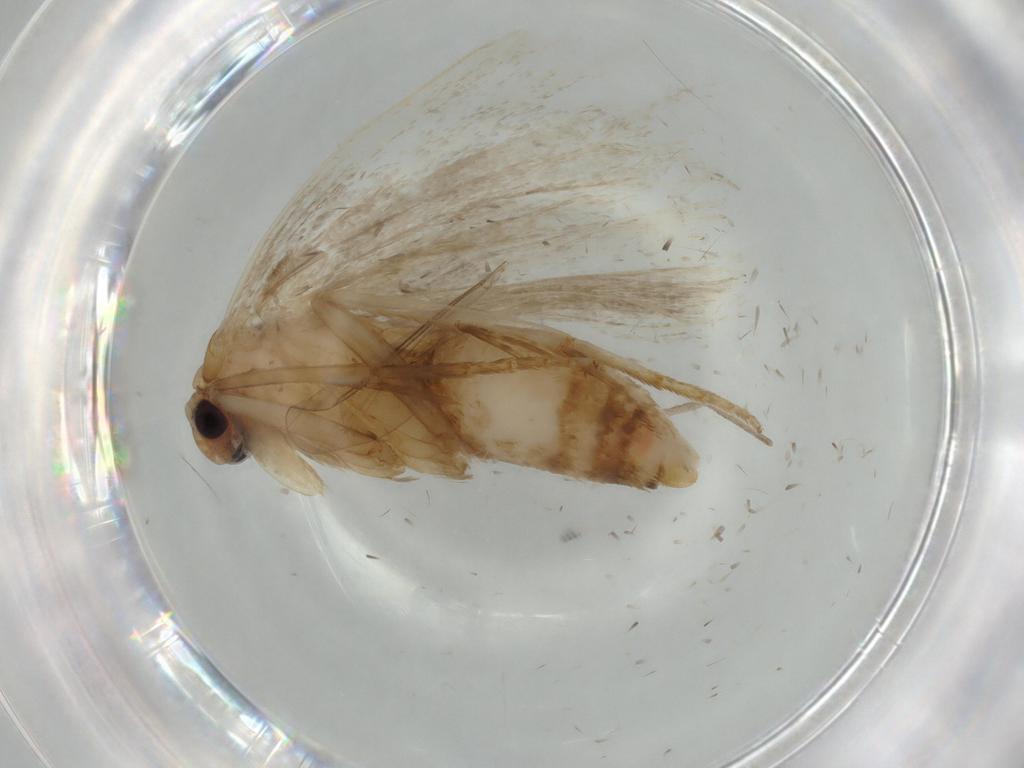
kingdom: Animalia
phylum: Arthropoda
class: Insecta
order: Lepidoptera
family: Erebidae
